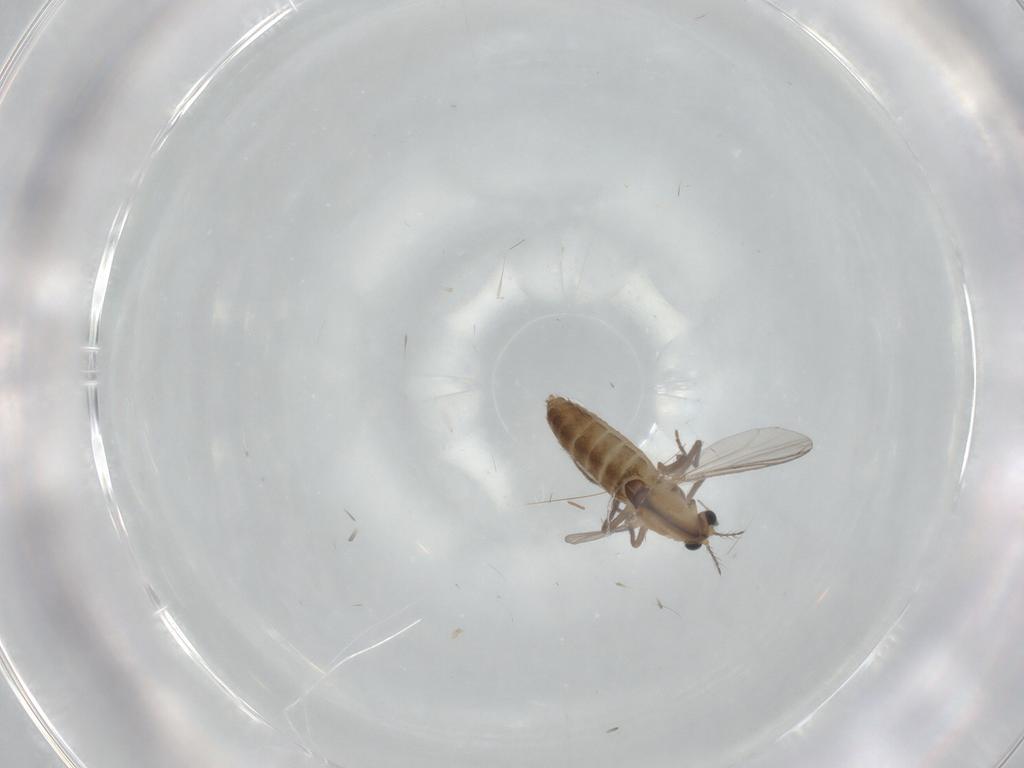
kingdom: Animalia
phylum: Arthropoda
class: Insecta
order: Diptera
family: Chironomidae
